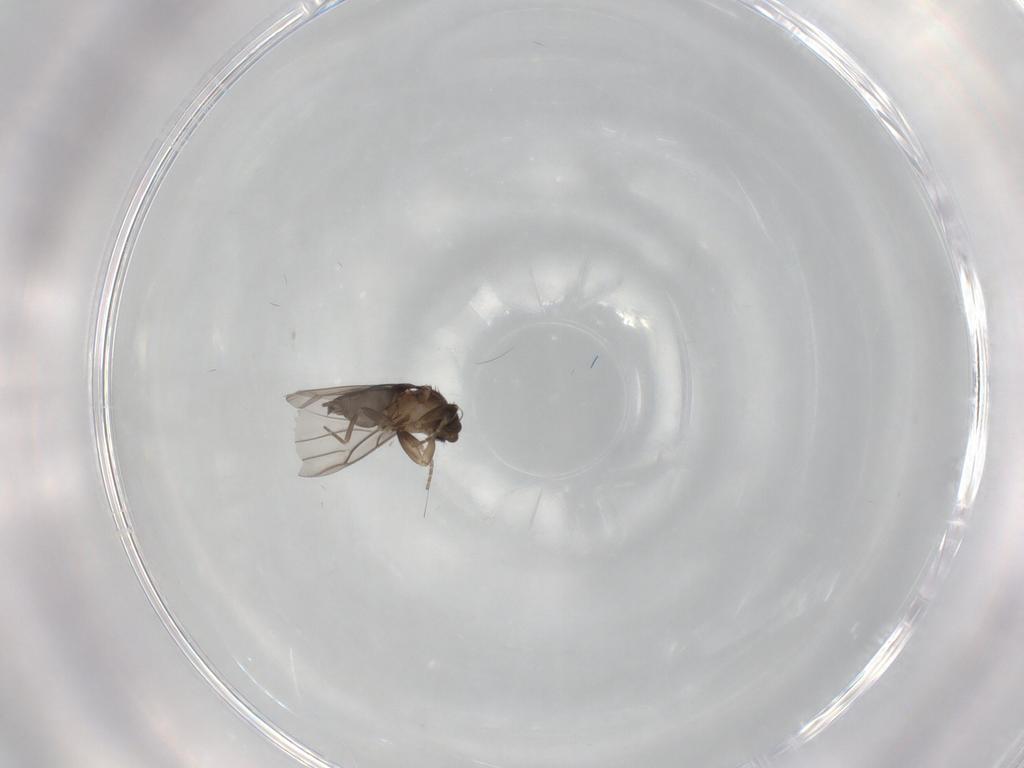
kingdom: Animalia
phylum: Arthropoda
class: Insecta
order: Diptera
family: Phoridae
